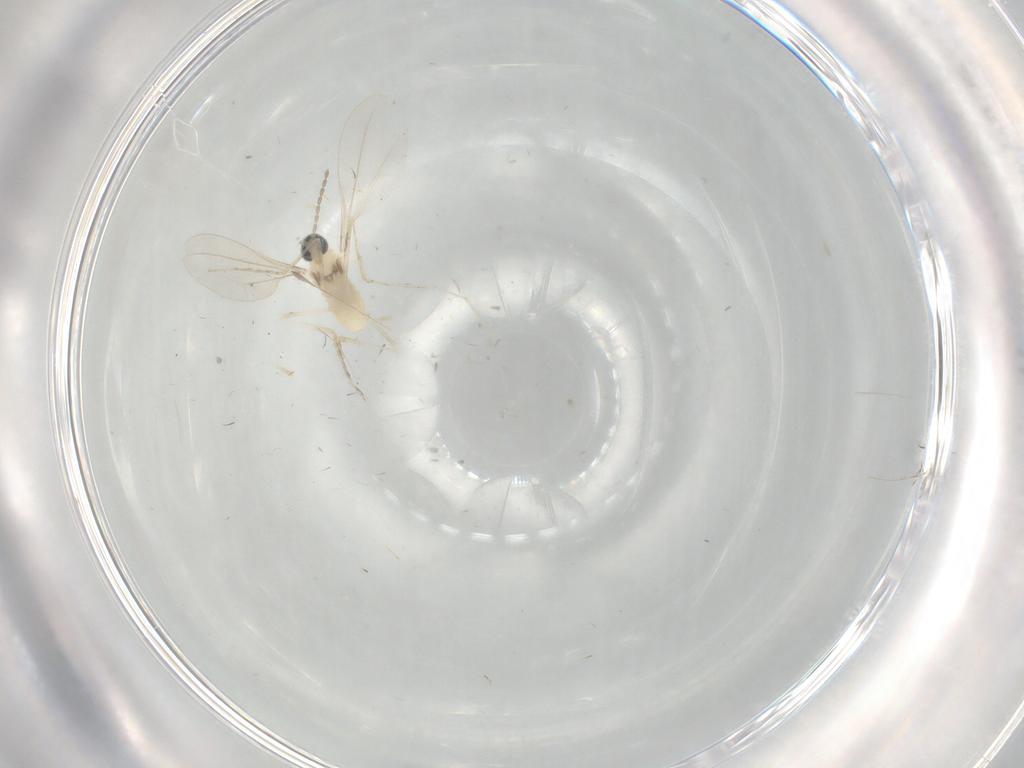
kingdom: Animalia
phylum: Arthropoda
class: Insecta
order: Diptera
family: Cecidomyiidae
